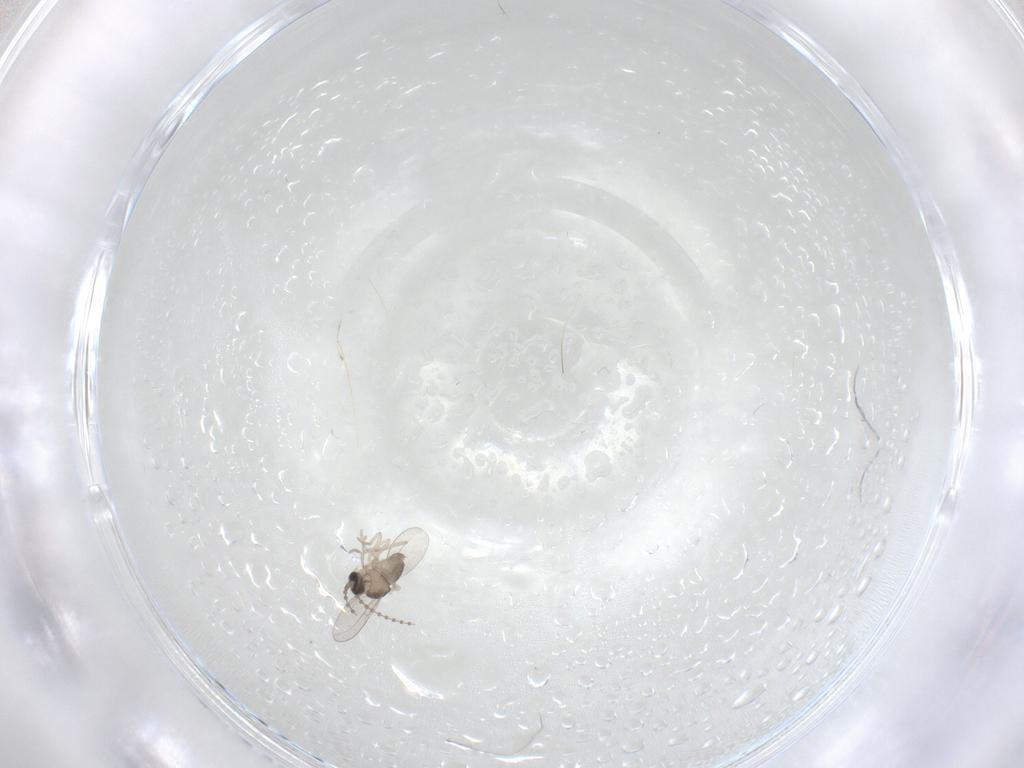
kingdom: Animalia
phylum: Arthropoda
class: Insecta
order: Diptera
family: Cecidomyiidae
